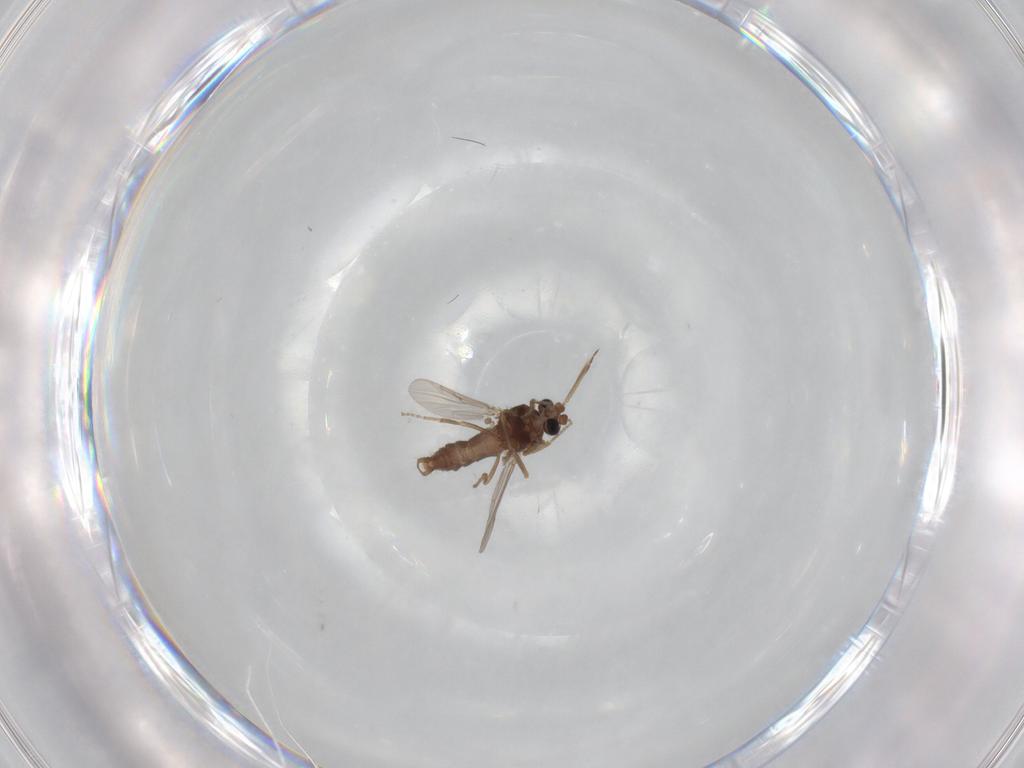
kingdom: Animalia
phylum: Arthropoda
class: Insecta
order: Diptera
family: Ceratopogonidae
